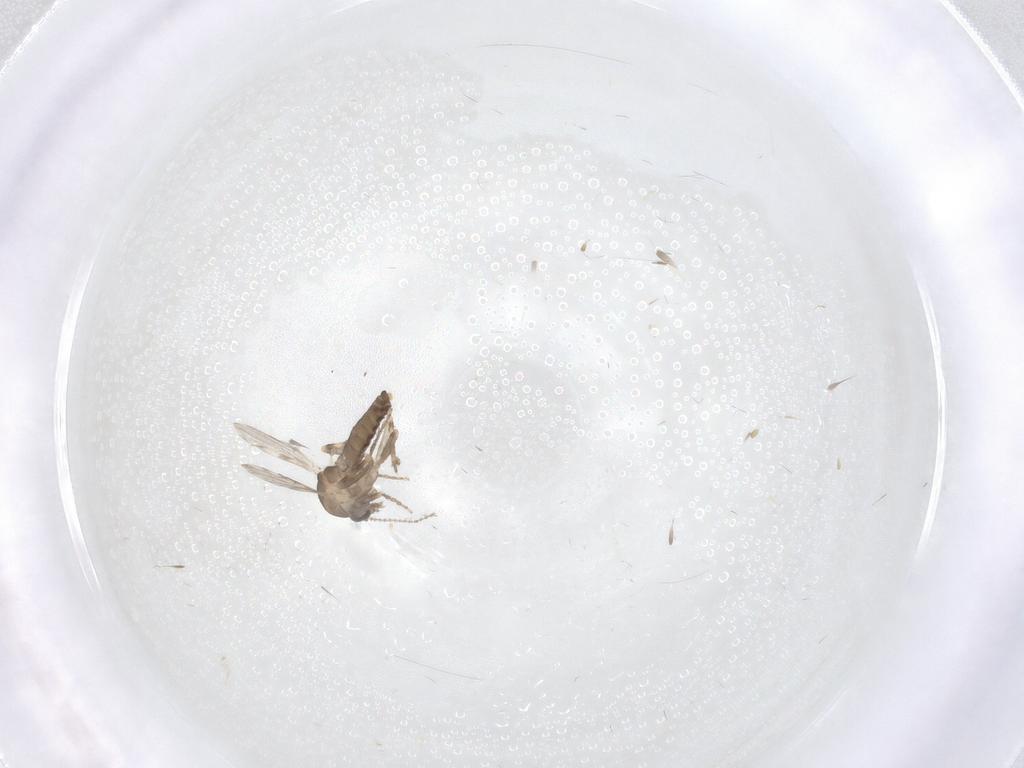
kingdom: Animalia
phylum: Arthropoda
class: Insecta
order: Diptera
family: Ceratopogonidae
